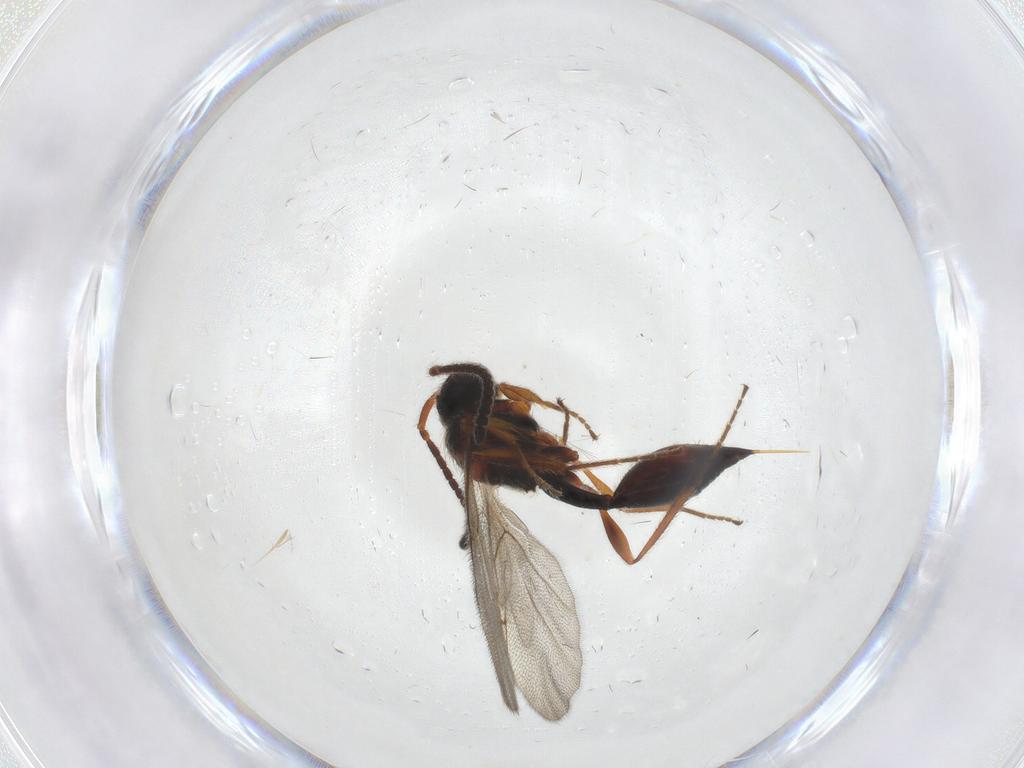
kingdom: Animalia
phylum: Arthropoda
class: Insecta
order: Hymenoptera
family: Diapriidae
